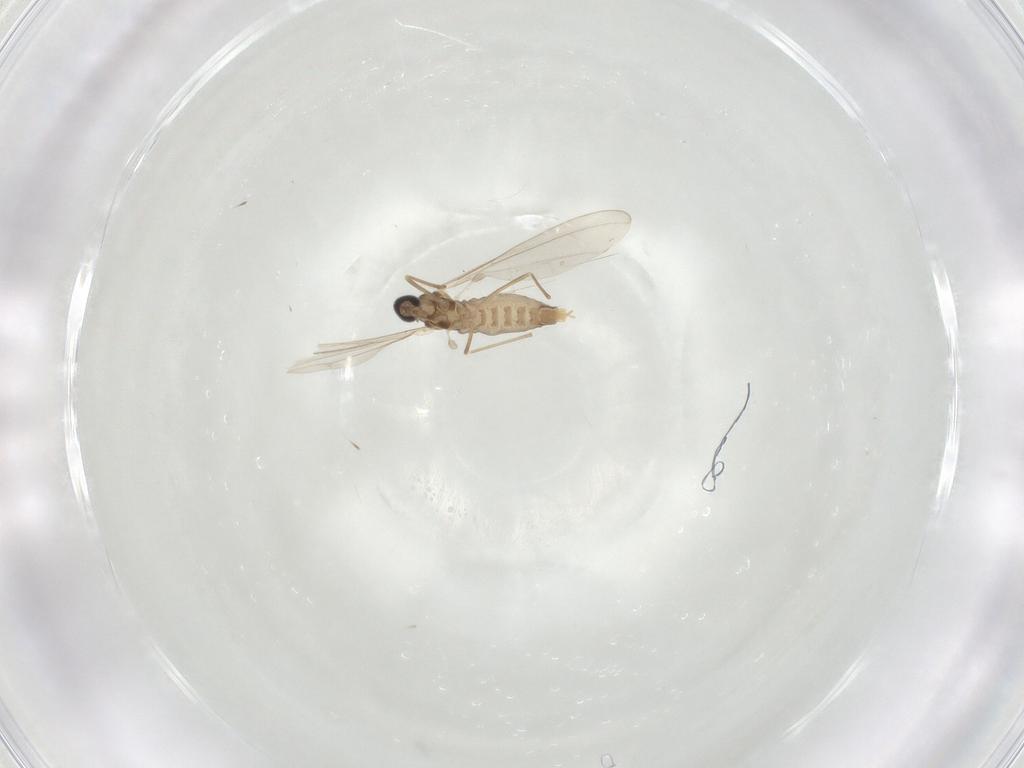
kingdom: Animalia
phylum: Arthropoda
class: Insecta
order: Diptera
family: Cecidomyiidae
